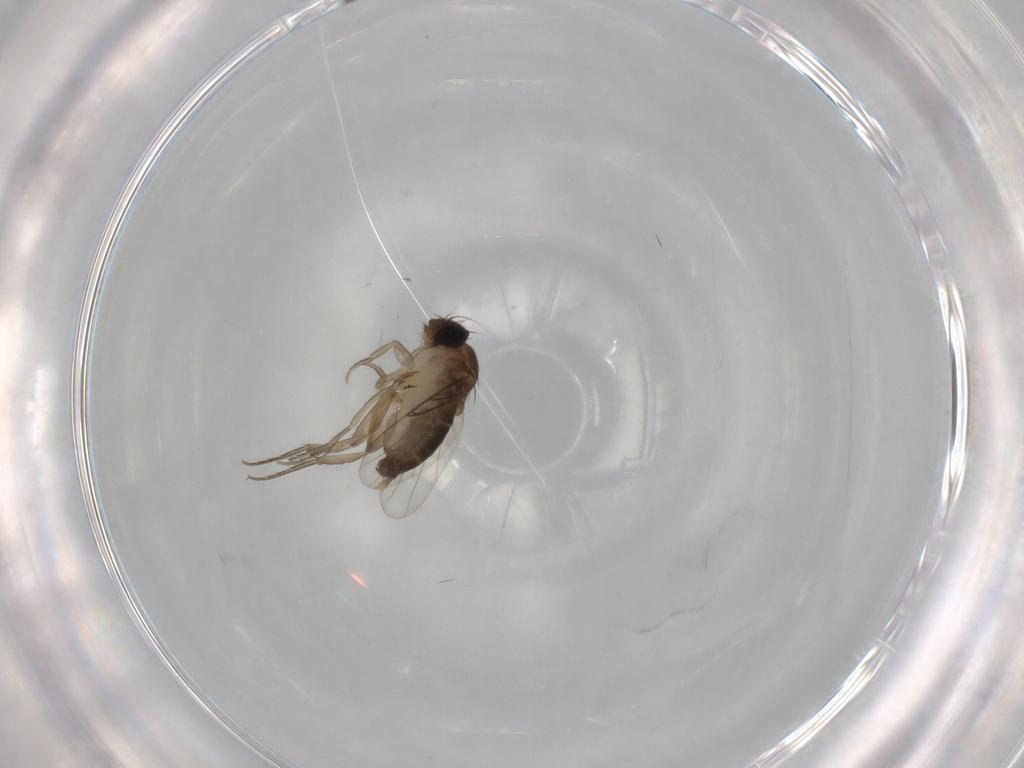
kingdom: Animalia
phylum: Arthropoda
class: Insecta
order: Diptera
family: Phoridae
